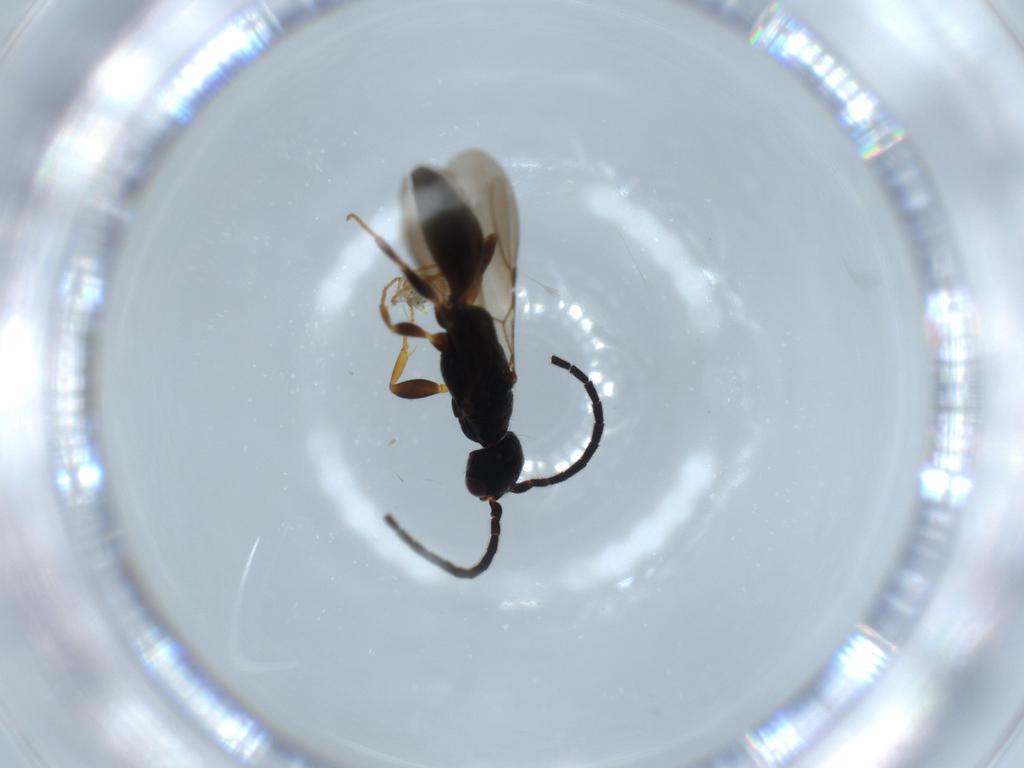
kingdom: Animalia
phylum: Arthropoda
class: Insecta
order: Hymenoptera
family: Bethylidae
